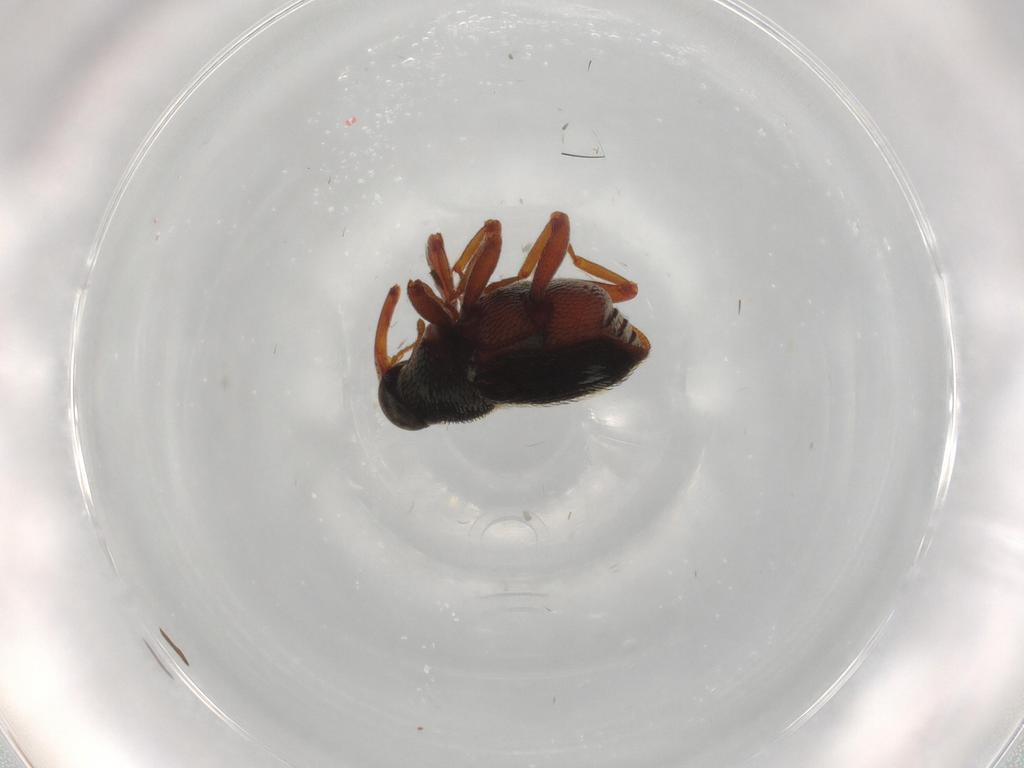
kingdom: Animalia
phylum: Arthropoda
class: Insecta
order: Coleoptera
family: Curculionidae
